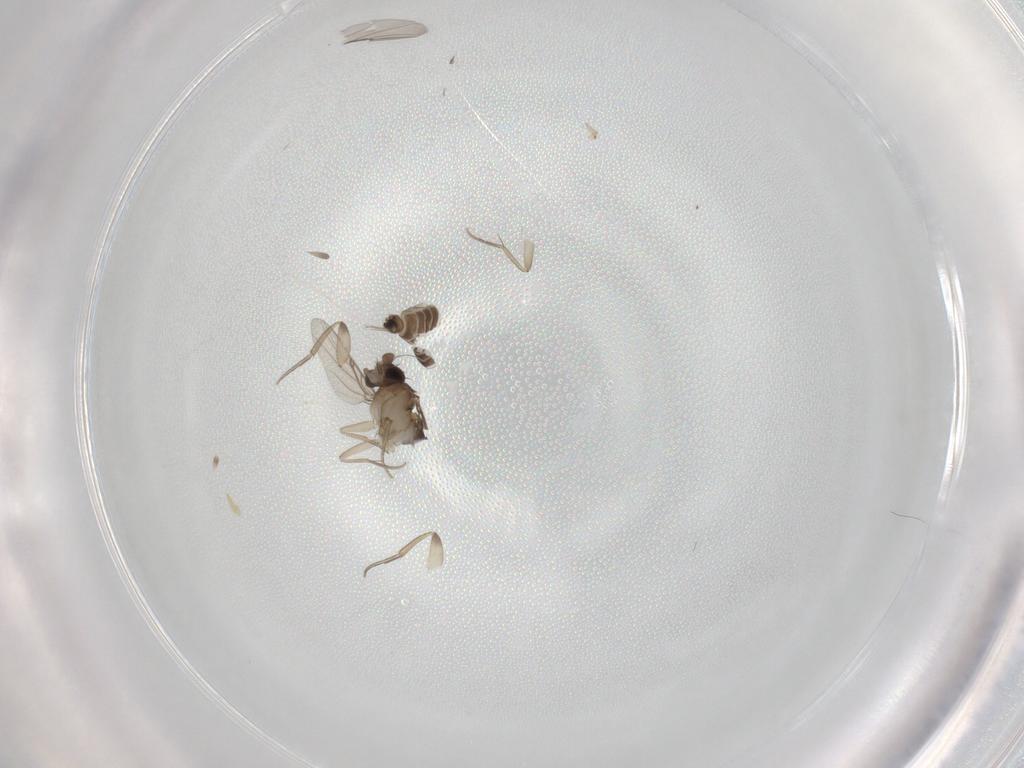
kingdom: Animalia
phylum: Arthropoda
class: Insecta
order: Diptera
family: Phoridae
